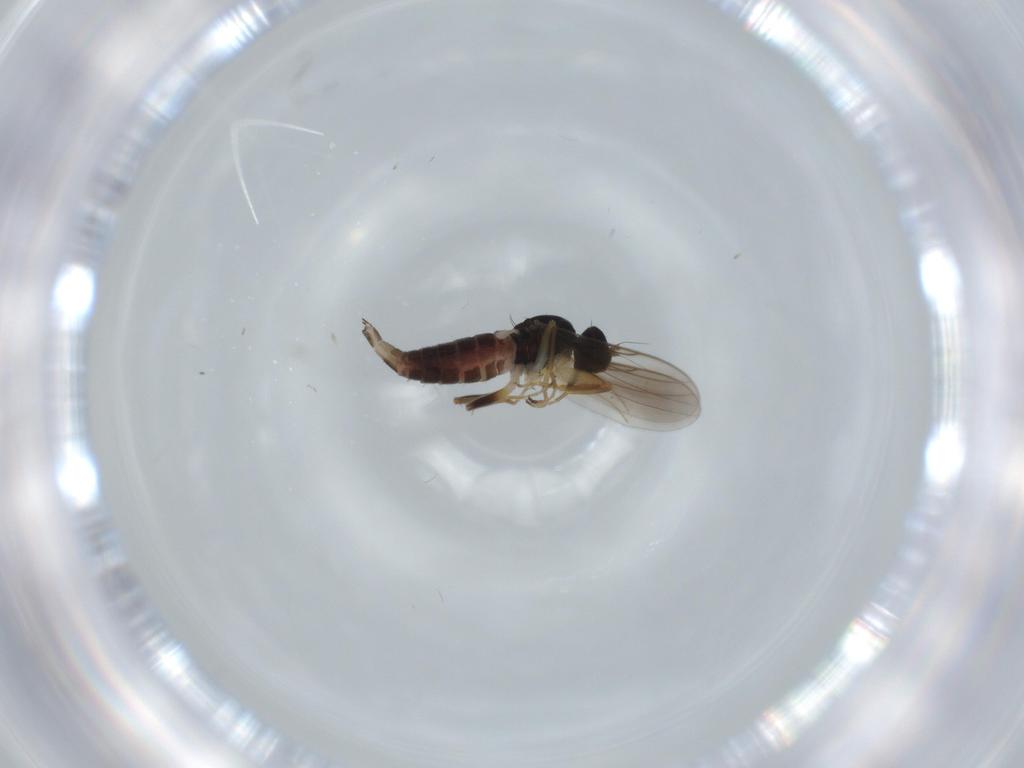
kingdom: Animalia
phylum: Arthropoda
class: Insecta
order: Diptera
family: Hybotidae
